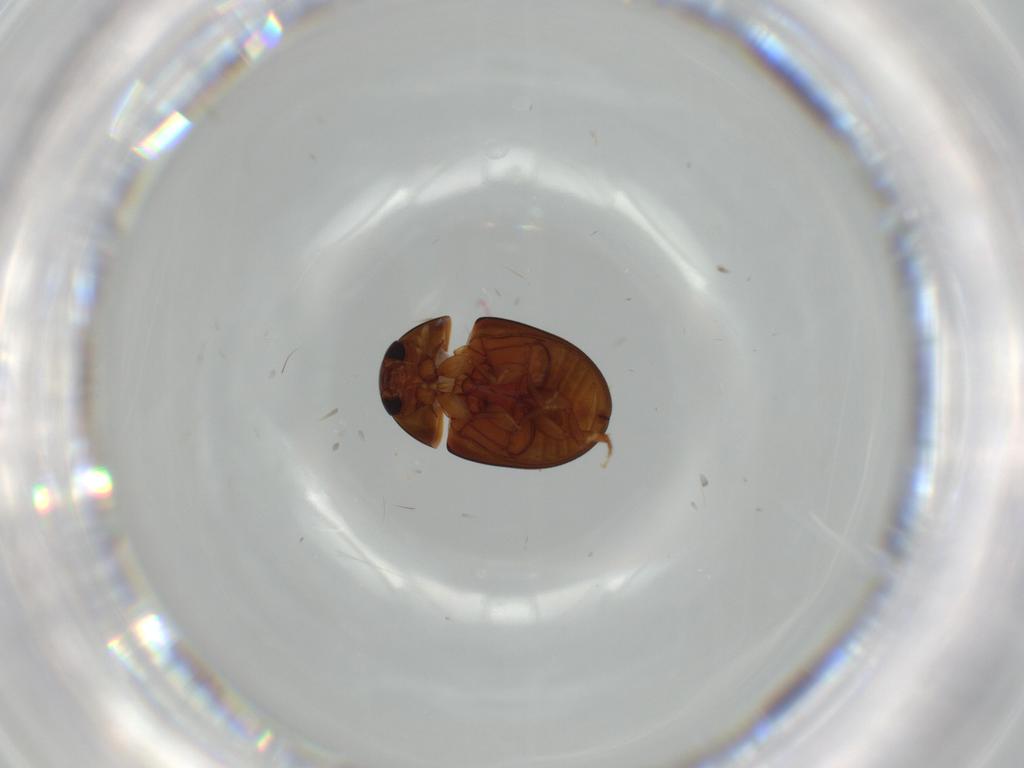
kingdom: Animalia
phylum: Arthropoda
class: Insecta
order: Coleoptera
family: Phalacridae
